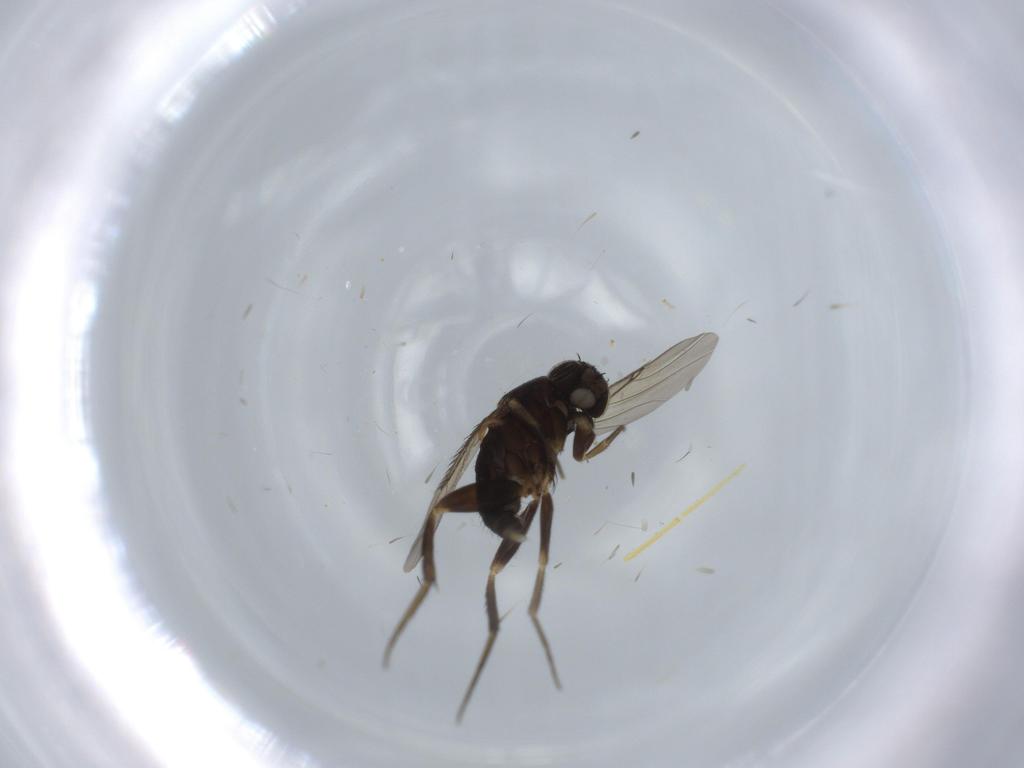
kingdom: Animalia
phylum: Arthropoda
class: Insecta
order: Diptera
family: Phoridae
